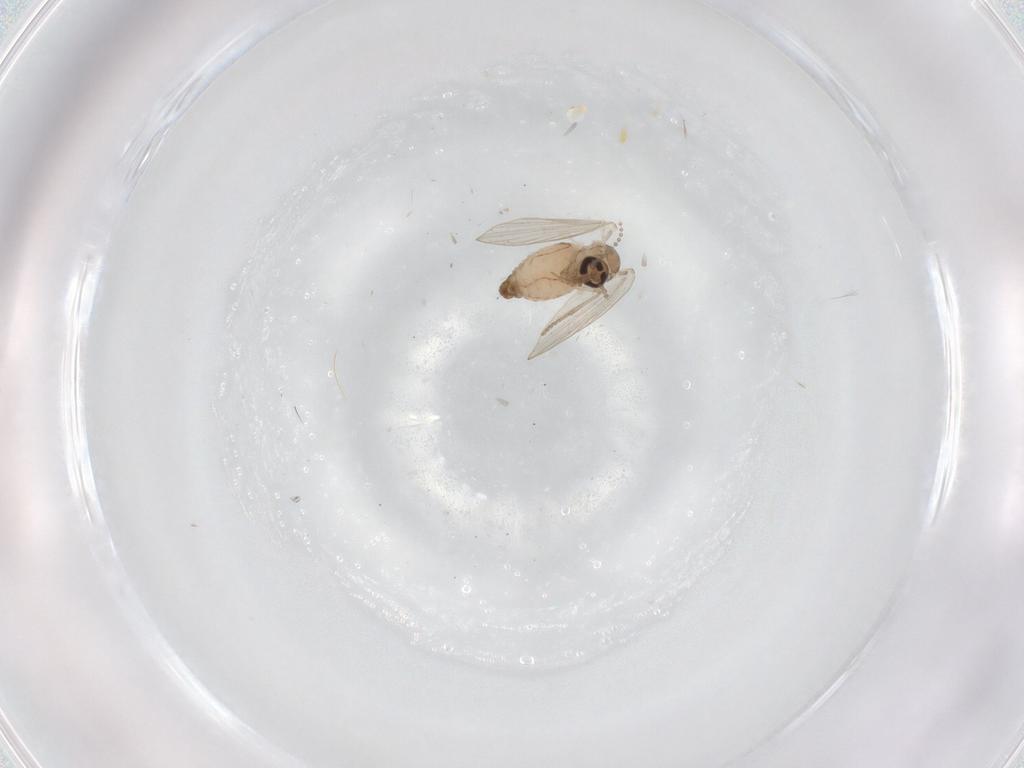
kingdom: Animalia
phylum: Arthropoda
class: Insecta
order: Diptera
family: Psychodidae
